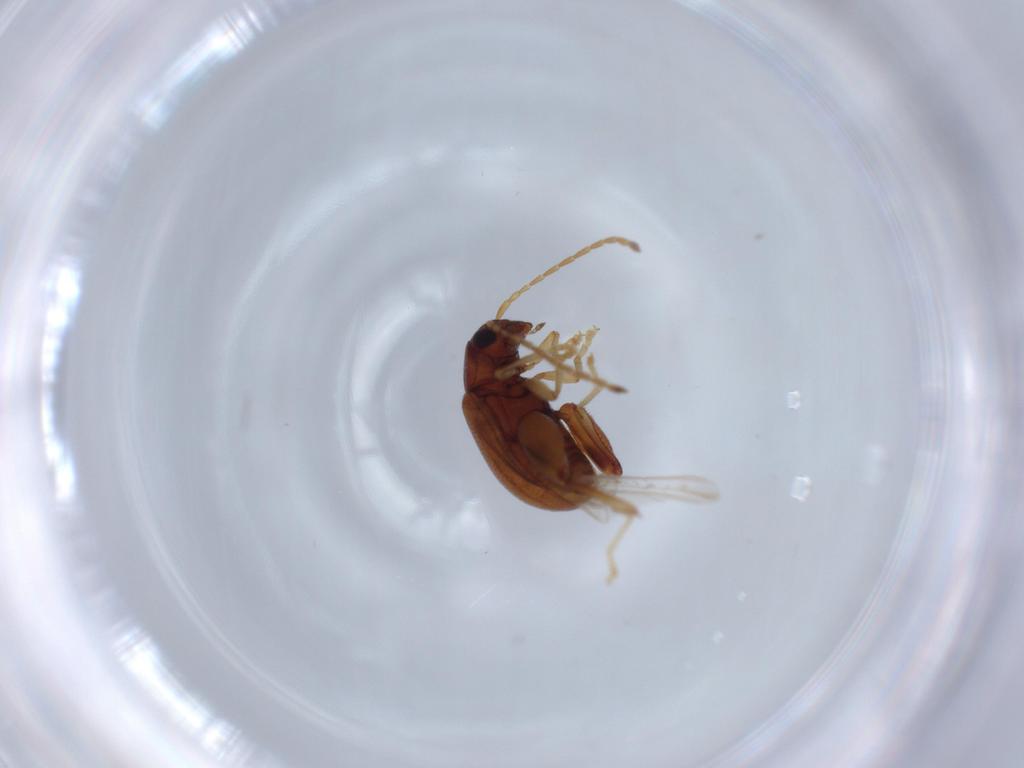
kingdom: Animalia
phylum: Arthropoda
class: Insecta
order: Coleoptera
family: Chrysomelidae
